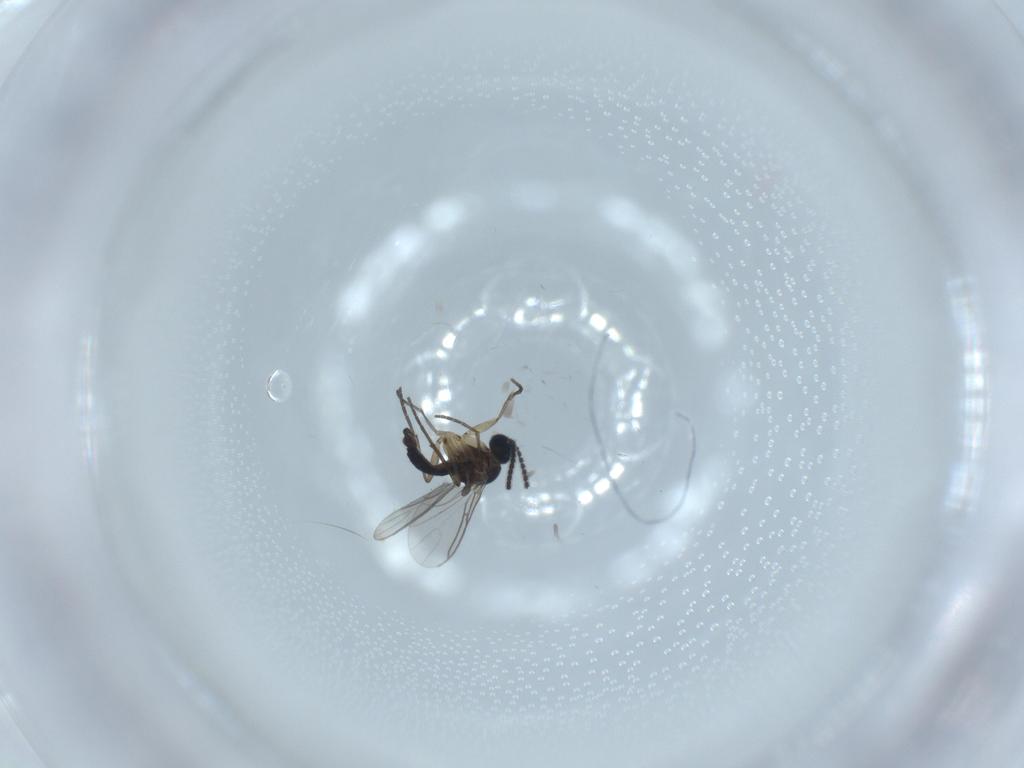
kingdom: Animalia
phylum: Arthropoda
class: Insecta
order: Diptera
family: Sciaridae
